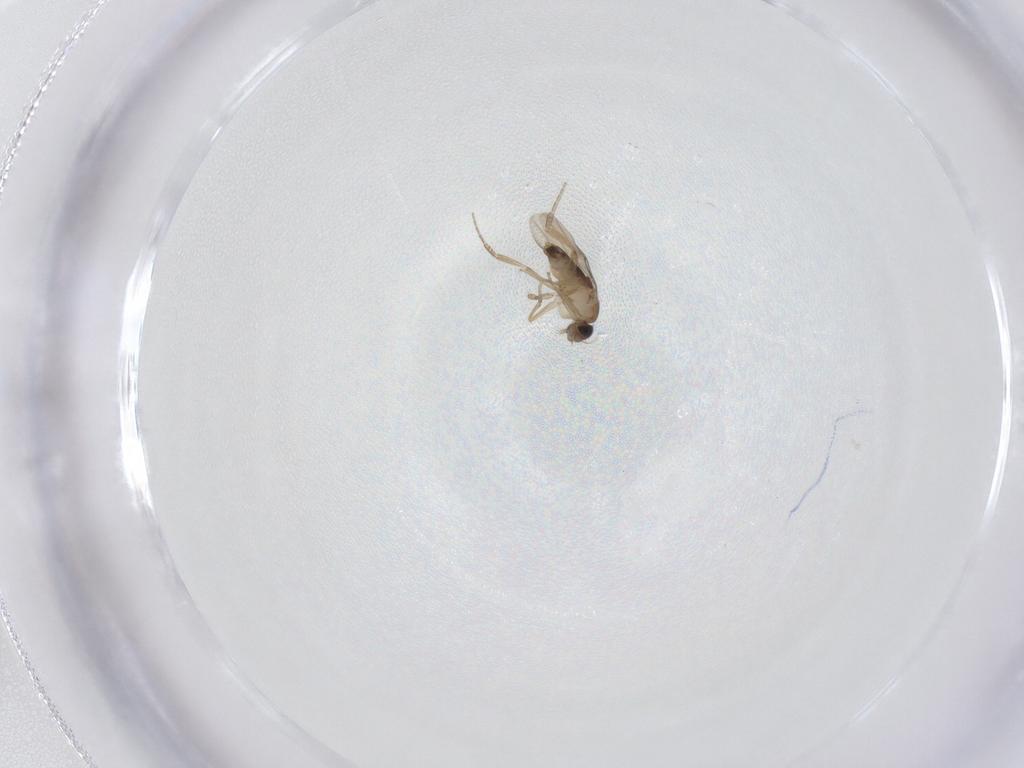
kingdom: Animalia
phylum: Arthropoda
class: Insecta
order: Diptera
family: Phoridae
